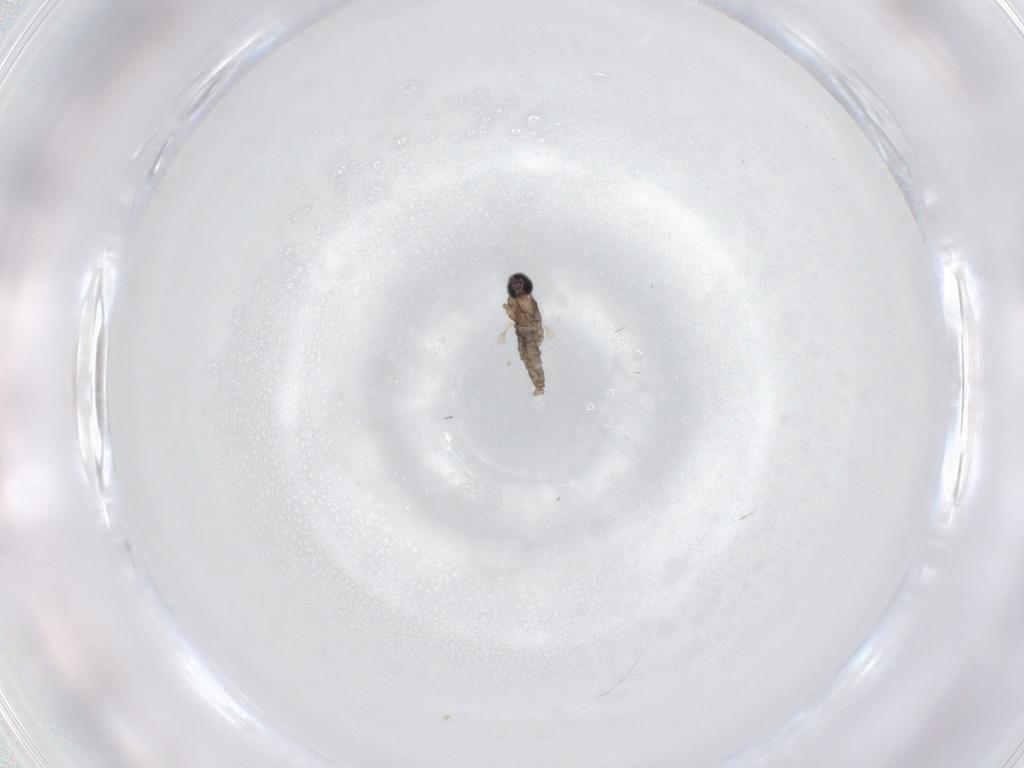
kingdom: Animalia
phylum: Arthropoda
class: Insecta
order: Diptera
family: Cecidomyiidae
